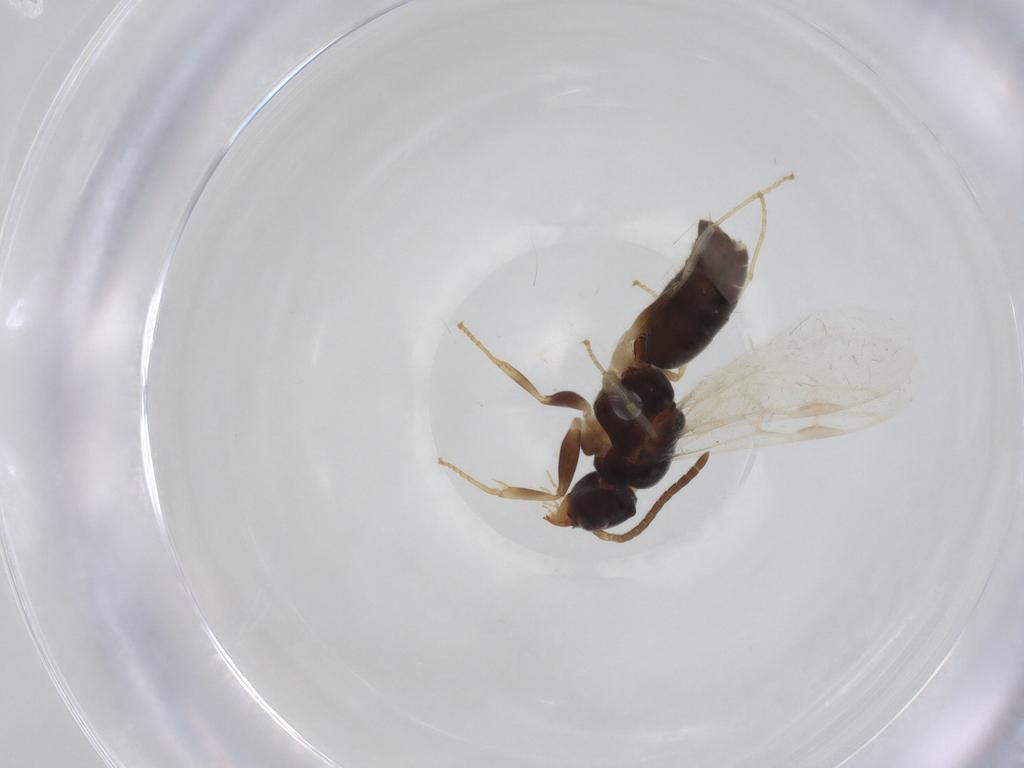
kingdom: Animalia
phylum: Arthropoda
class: Insecta
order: Hymenoptera
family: Formicidae
